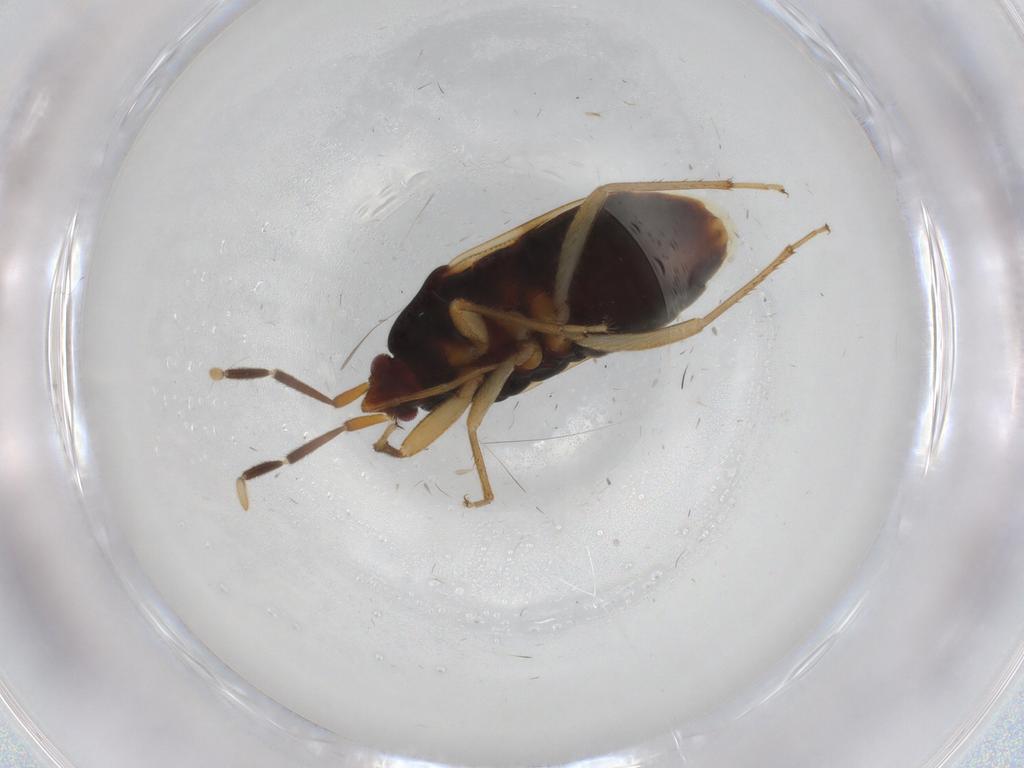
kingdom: Animalia
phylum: Arthropoda
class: Insecta
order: Hemiptera
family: Rhyparochromidae
